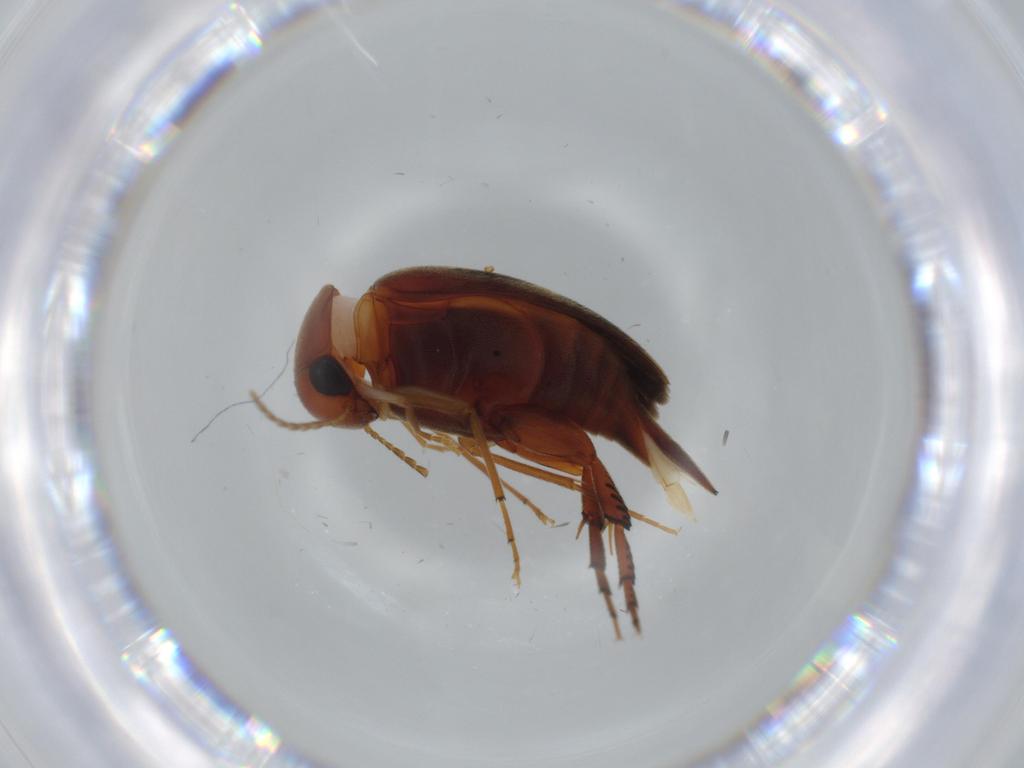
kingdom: Animalia
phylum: Arthropoda
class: Insecta
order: Coleoptera
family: Scraptiidae
